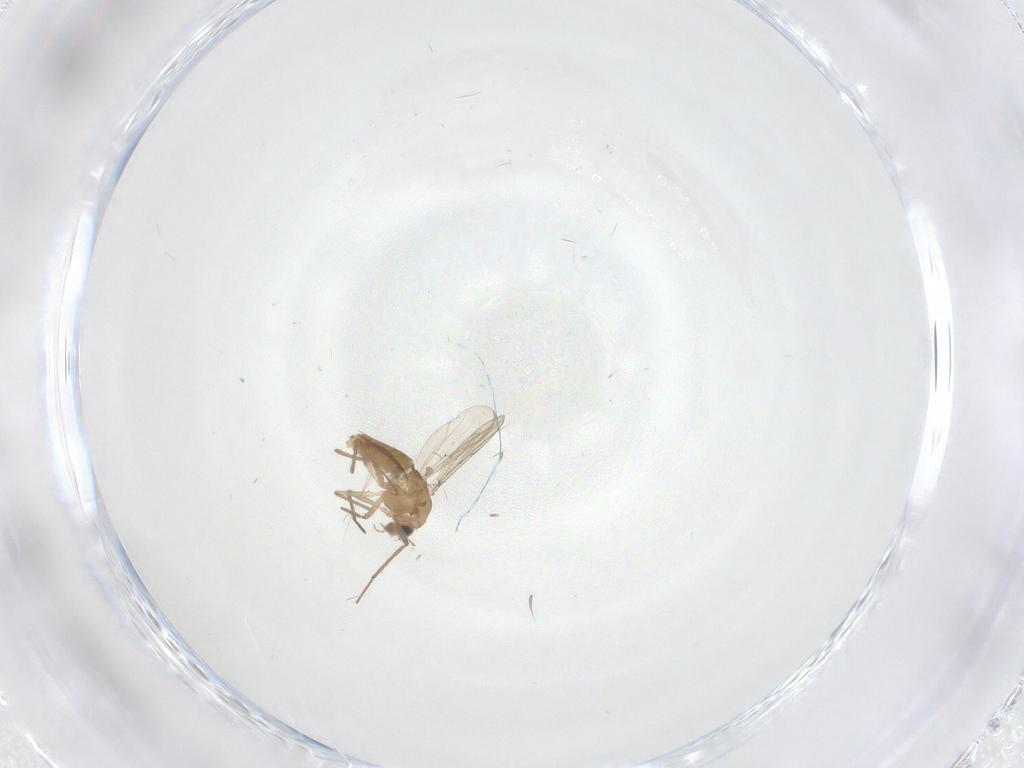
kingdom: Animalia
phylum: Arthropoda
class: Insecta
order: Diptera
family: Chironomidae
